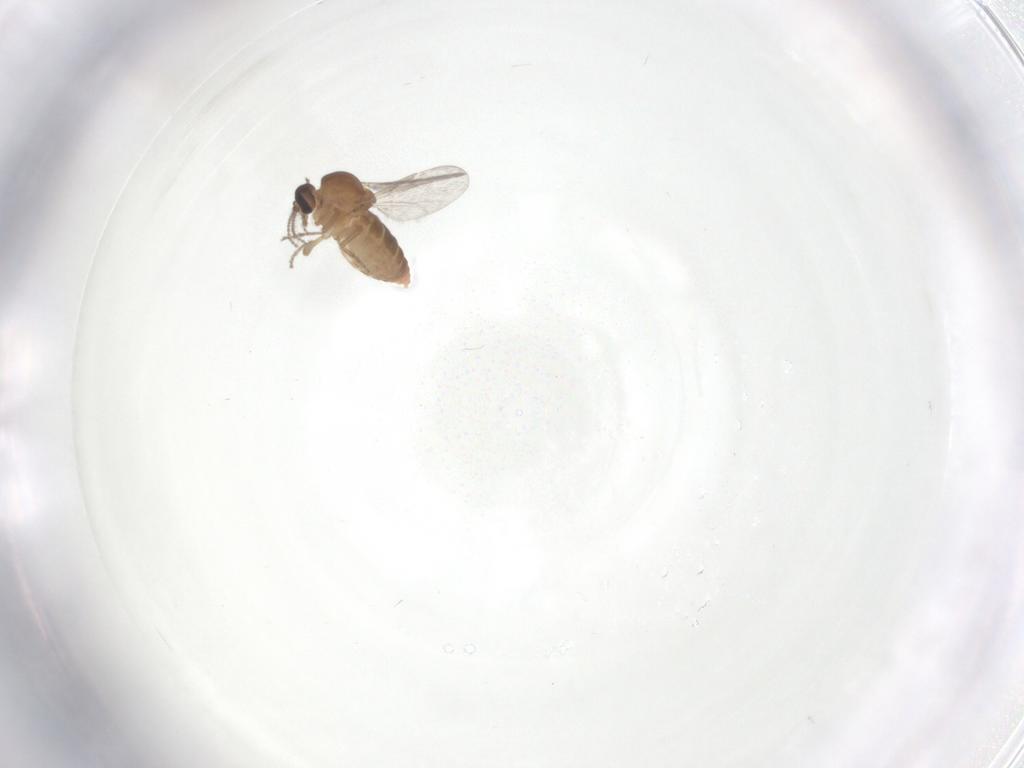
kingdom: Animalia
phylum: Arthropoda
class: Insecta
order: Diptera
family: Ceratopogonidae
